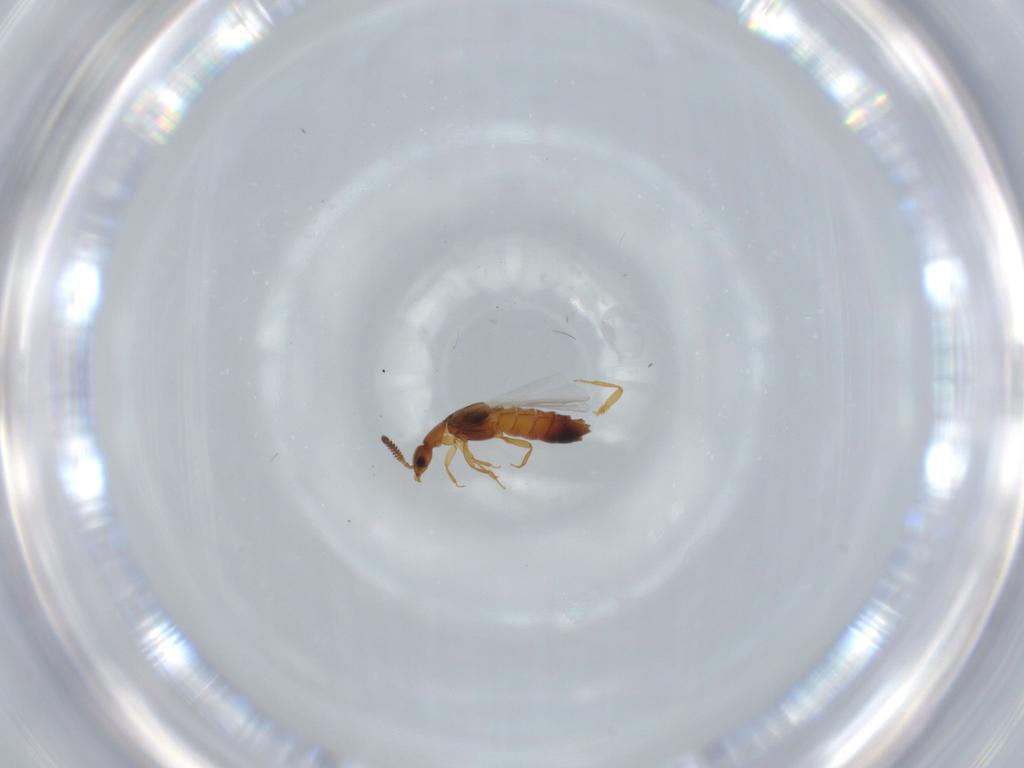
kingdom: Animalia
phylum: Arthropoda
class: Insecta
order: Coleoptera
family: Staphylinidae
